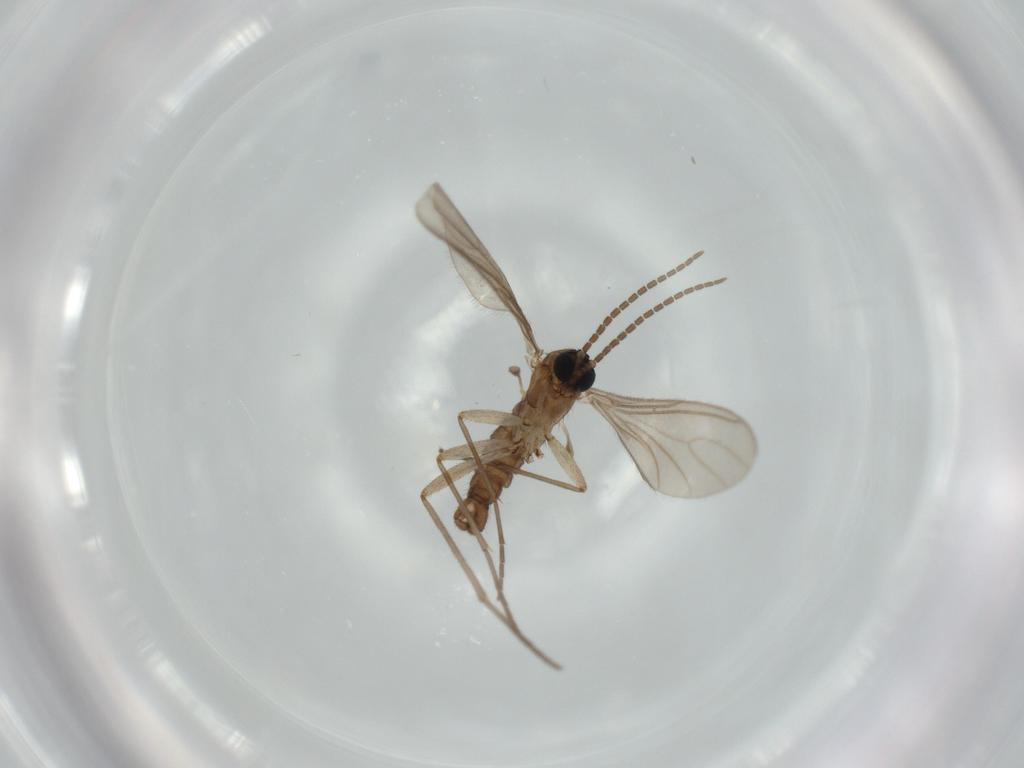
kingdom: Animalia
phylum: Arthropoda
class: Insecta
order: Diptera
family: Sciaridae
